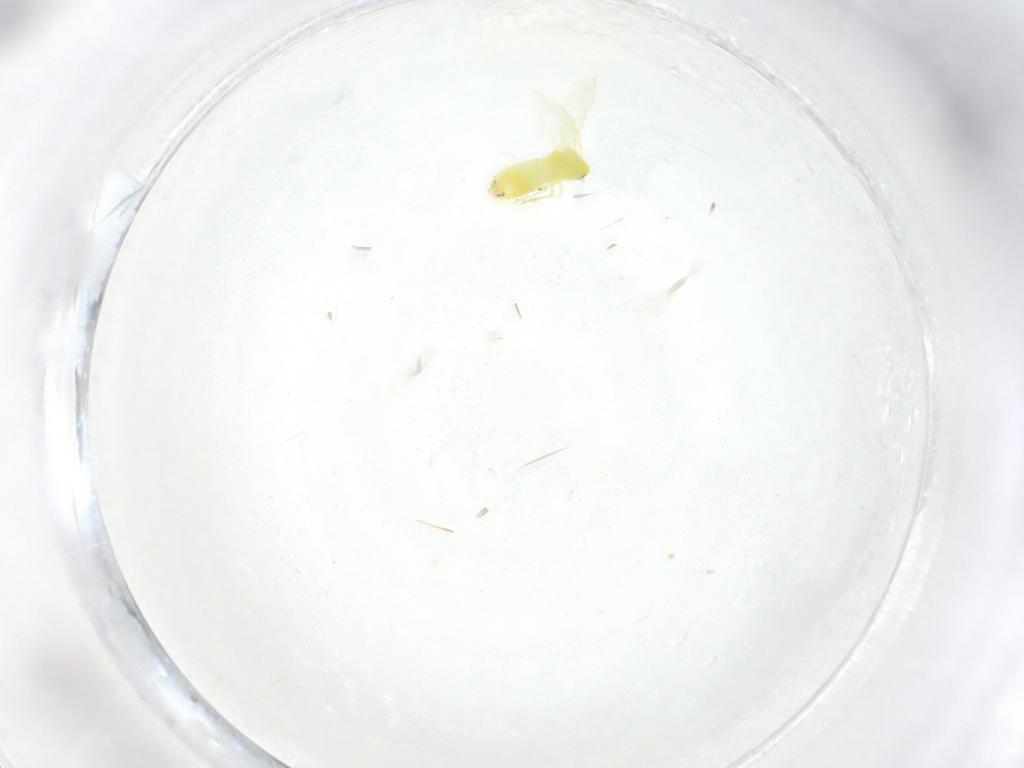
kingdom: Animalia
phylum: Arthropoda
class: Insecta
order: Hemiptera
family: Aleyrodidae
